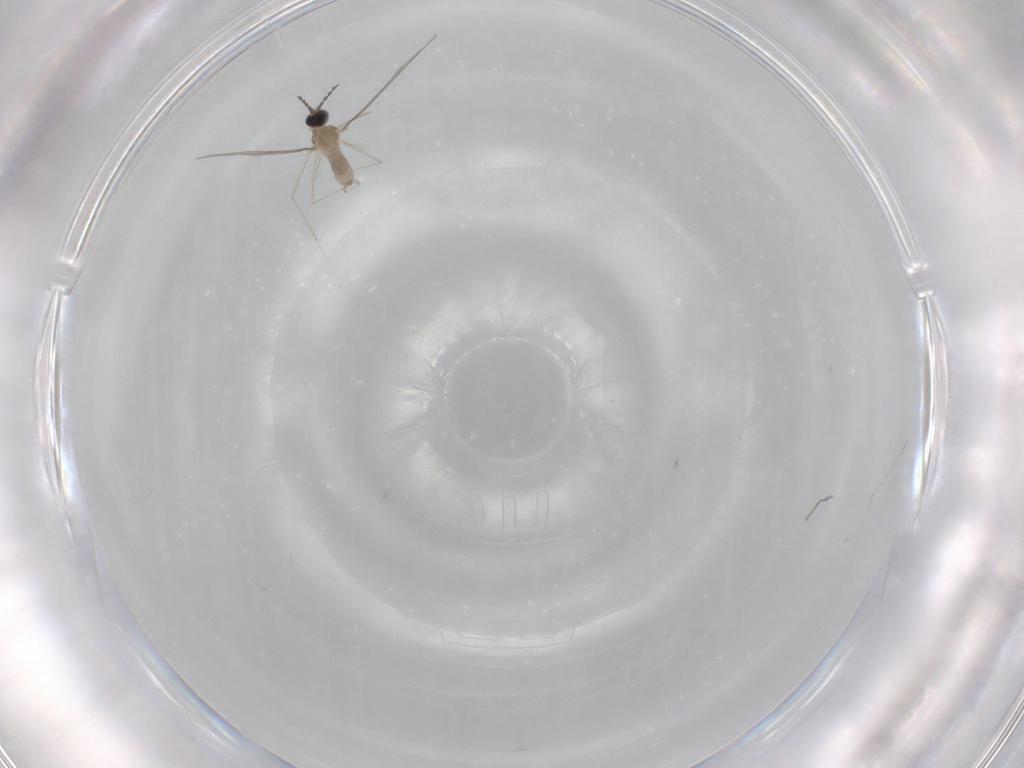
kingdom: Animalia
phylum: Arthropoda
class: Insecta
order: Diptera
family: Cecidomyiidae
